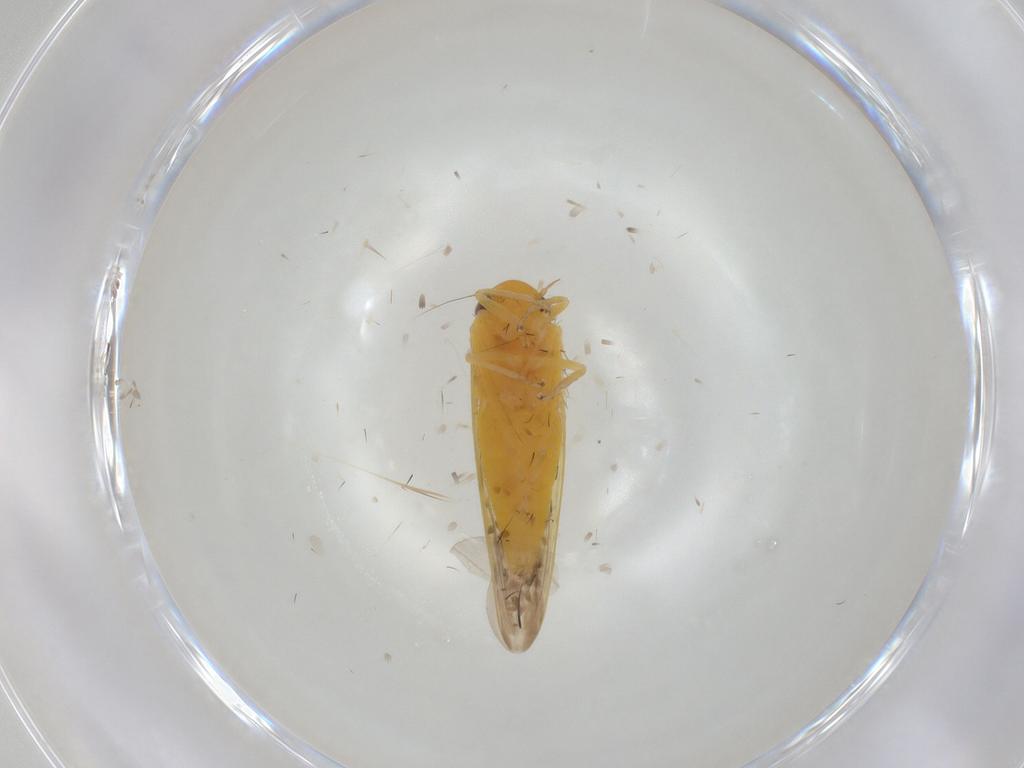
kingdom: Animalia
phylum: Arthropoda
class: Insecta
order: Hemiptera
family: Cicadellidae
